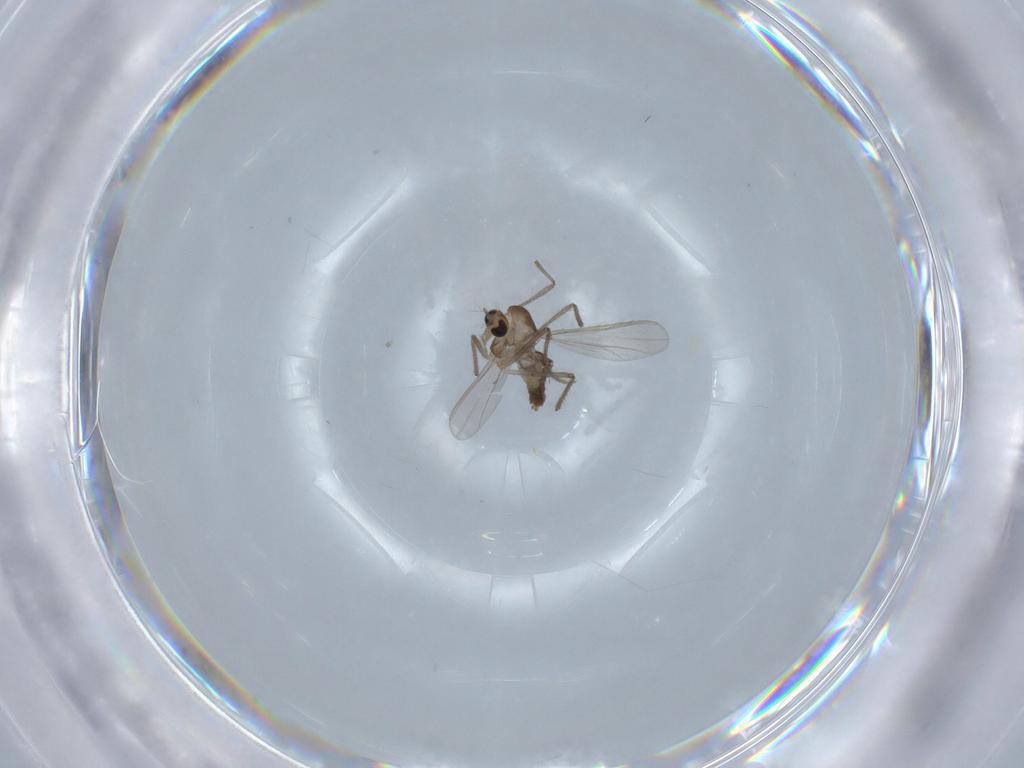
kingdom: Animalia
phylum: Arthropoda
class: Insecta
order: Diptera
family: Chironomidae
